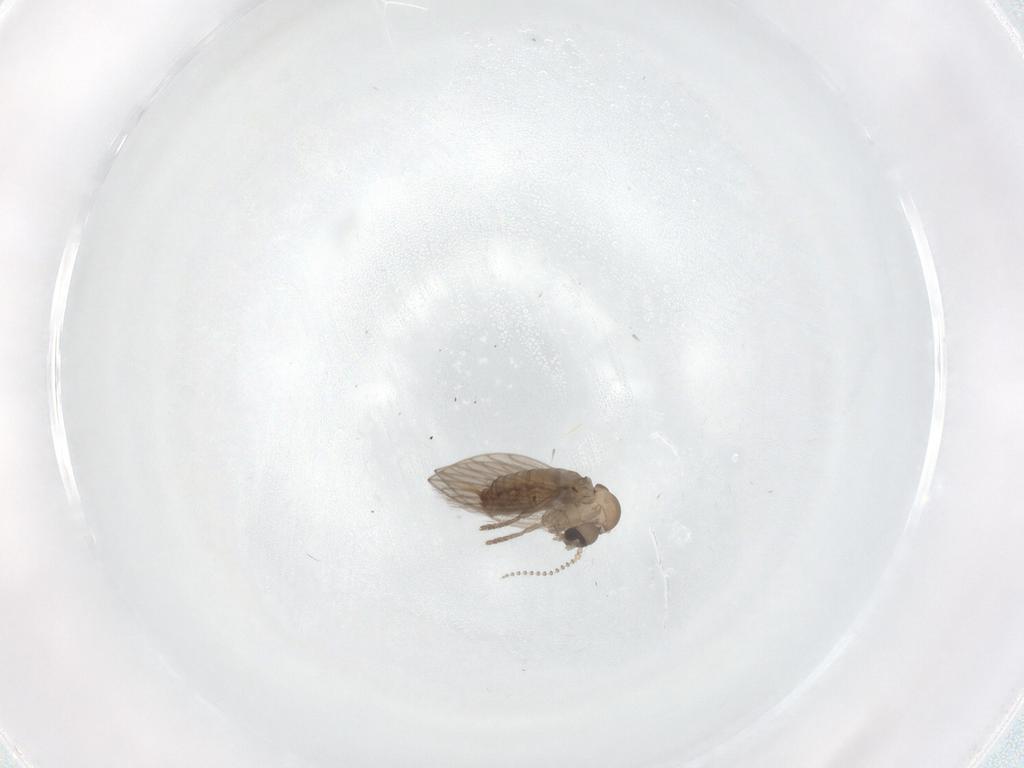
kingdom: Animalia
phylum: Arthropoda
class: Insecta
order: Diptera
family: Psychodidae
